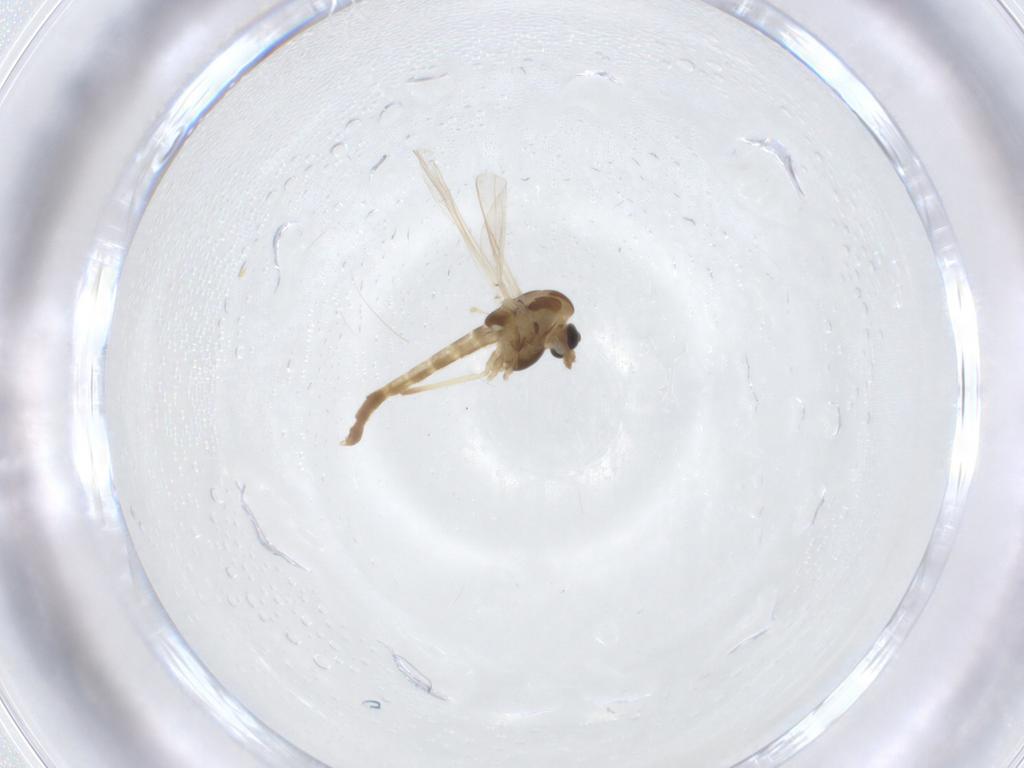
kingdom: Animalia
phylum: Arthropoda
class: Insecta
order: Diptera
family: Chironomidae
